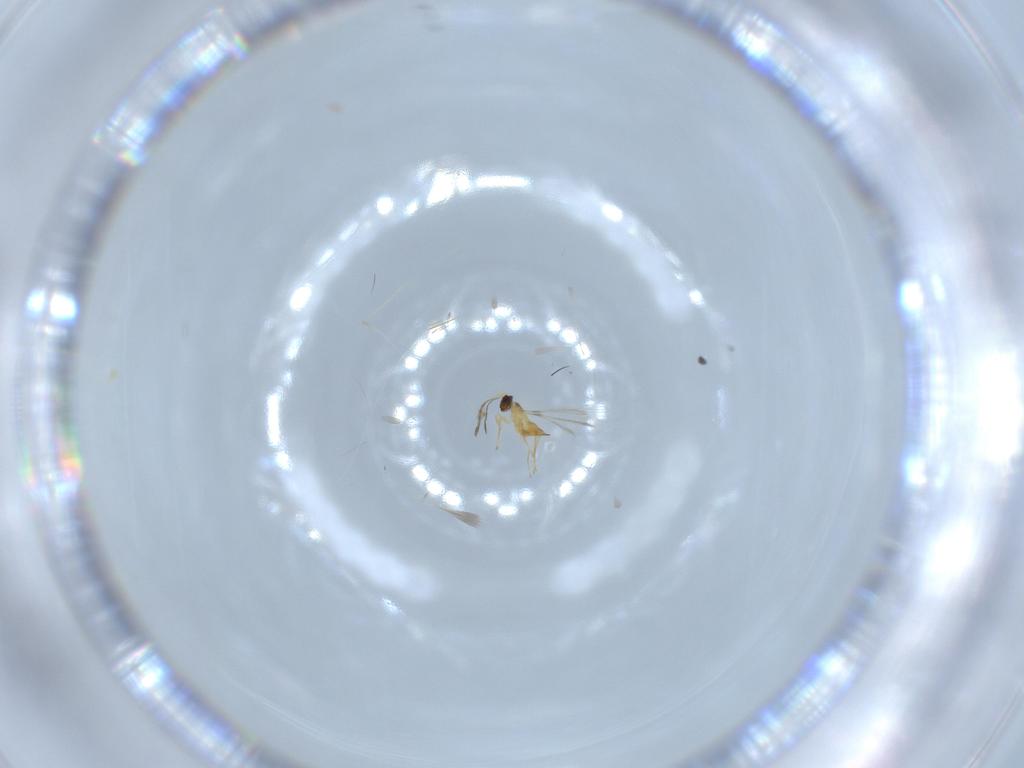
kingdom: Animalia
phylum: Arthropoda
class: Insecta
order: Hymenoptera
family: Mymaridae
